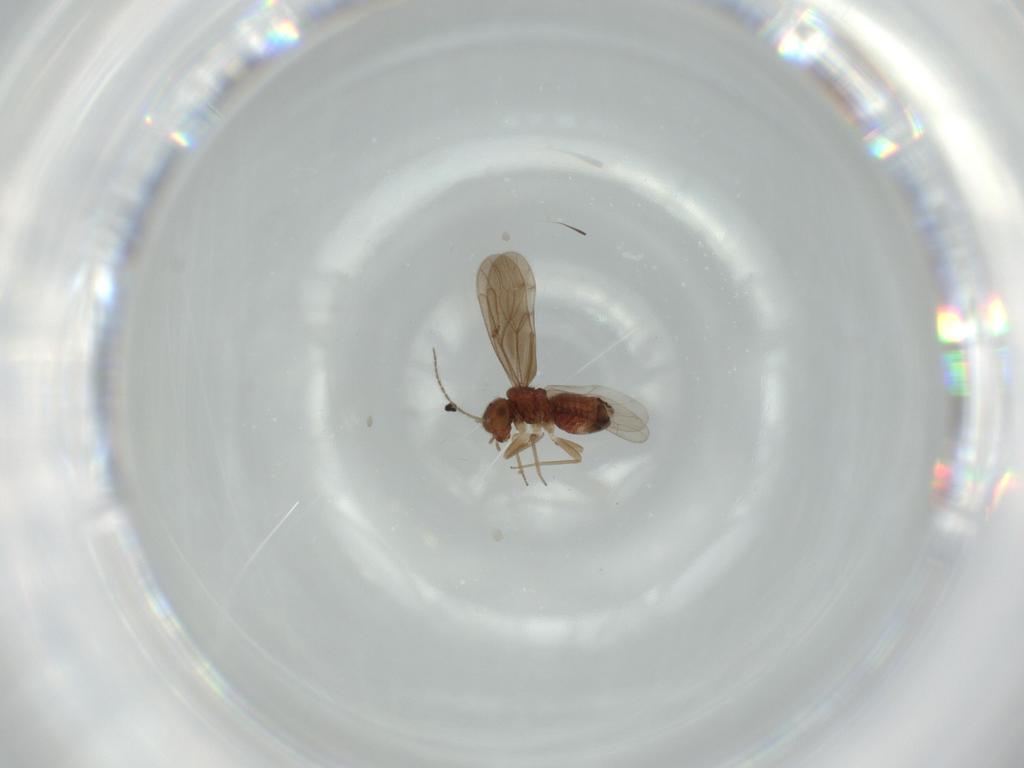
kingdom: Animalia
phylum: Arthropoda
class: Insecta
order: Psocodea
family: Ectopsocidae
